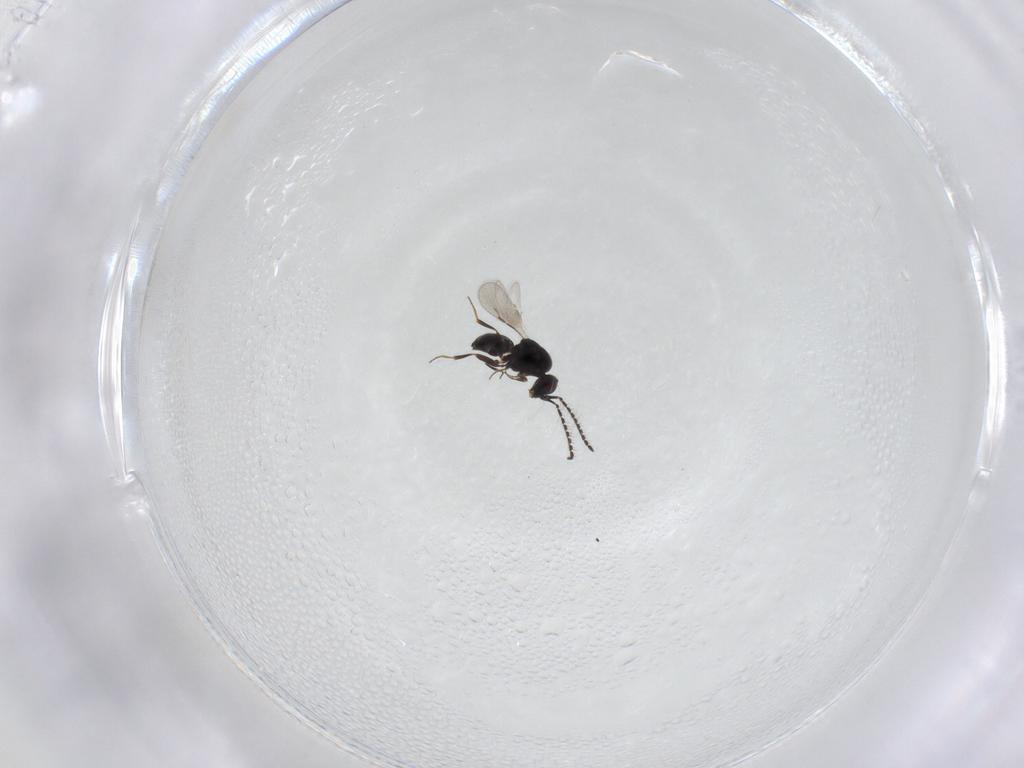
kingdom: Animalia
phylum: Arthropoda
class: Insecta
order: Hymenoptera
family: Ceraphronidae
